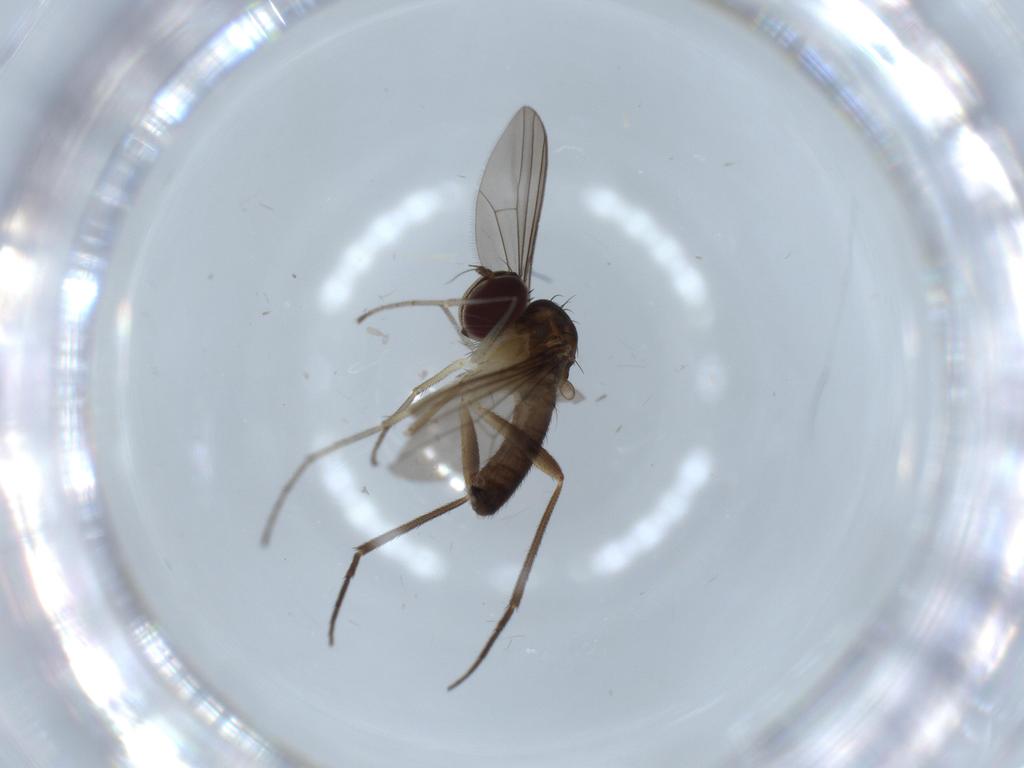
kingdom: Animalia
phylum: Arthropoda
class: Insecta
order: Diptera
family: Dolichopodidae
